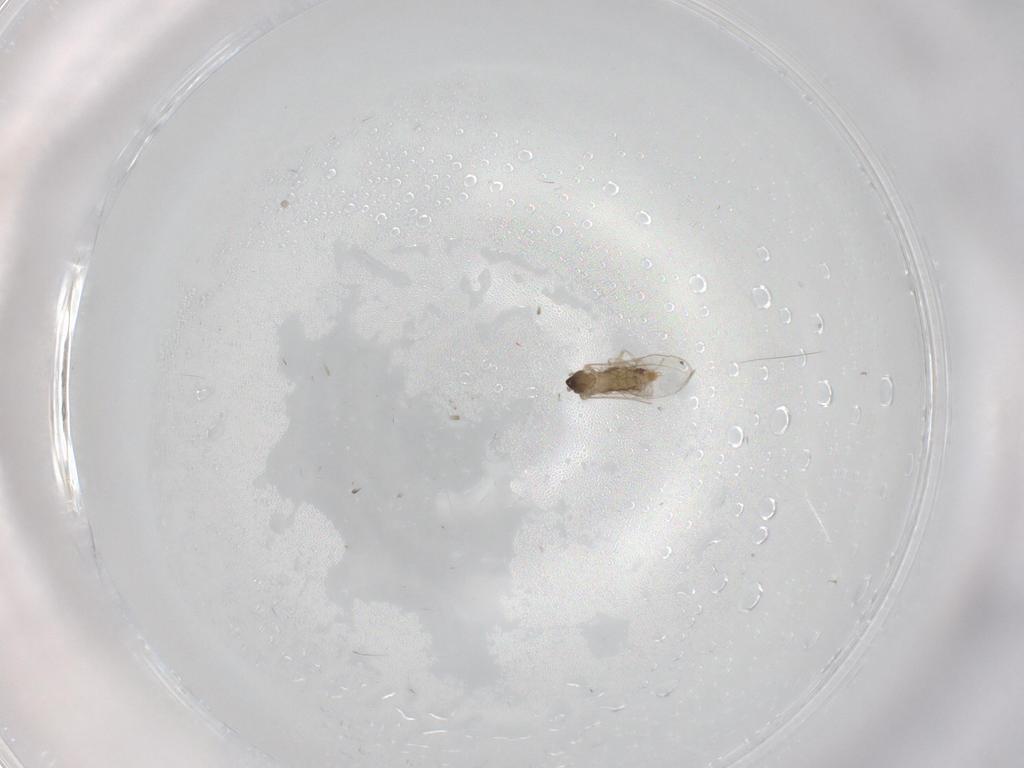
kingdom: Animalia
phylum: Arthropoda
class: Insecta
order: Diptera
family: Cecidomyiidae
